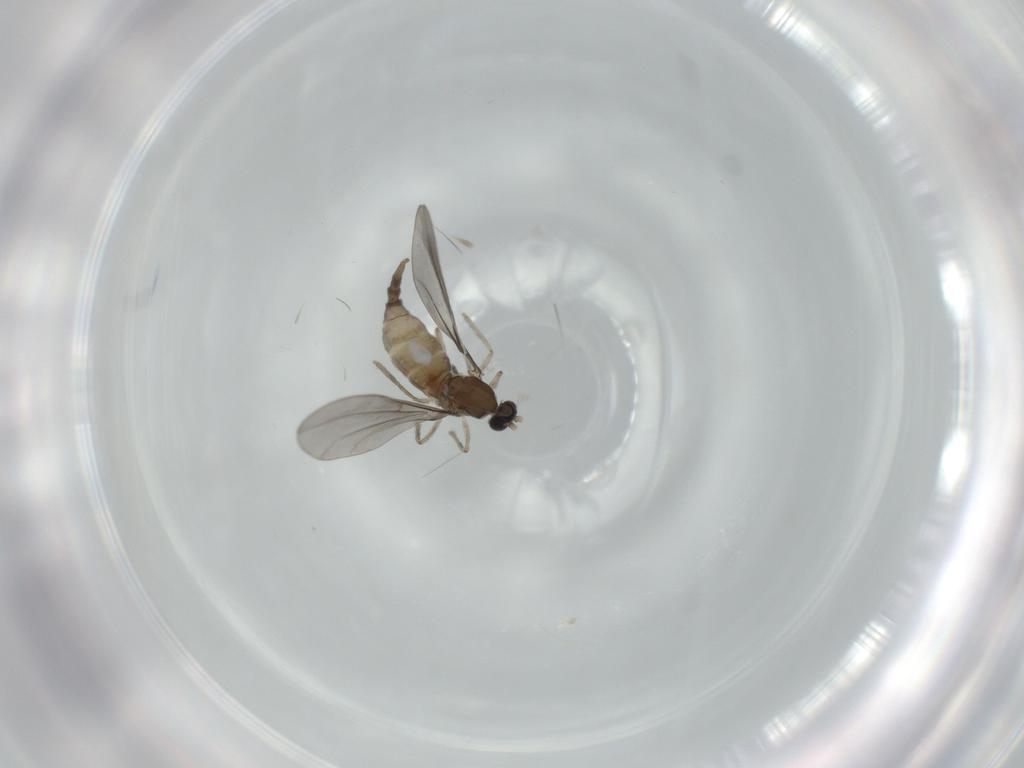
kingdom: Animalia
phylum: Arthropoda
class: Insecta
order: Diptera
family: Cecidomyiidae
